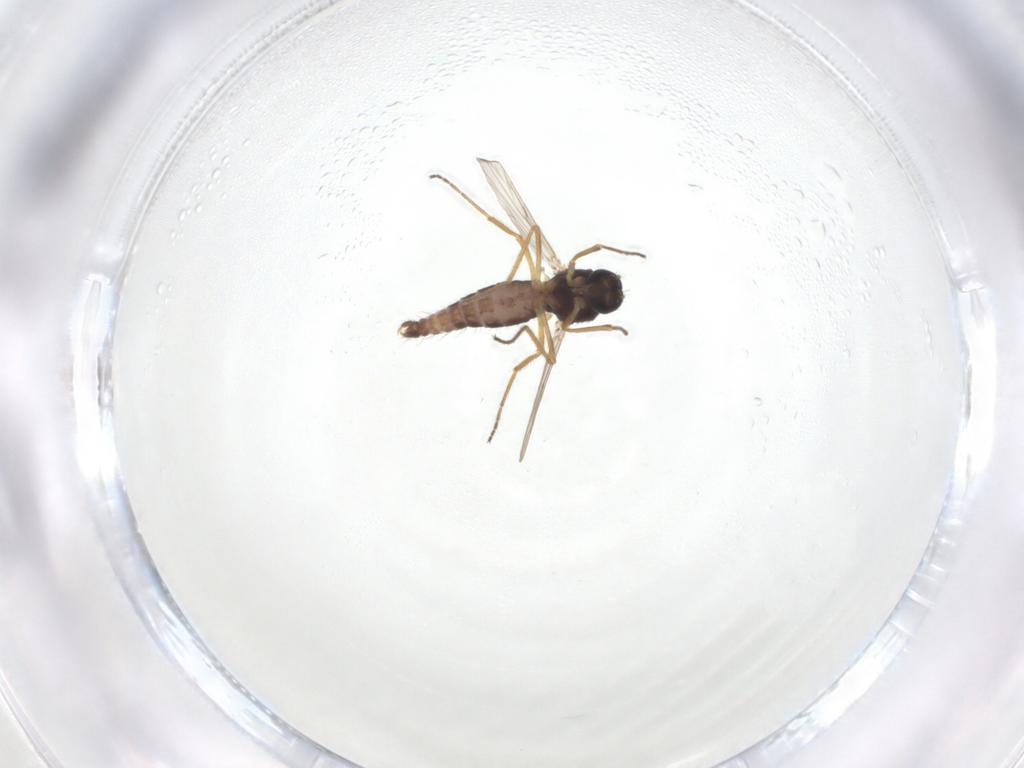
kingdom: Animalia
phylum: Arthropoda
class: Insecta
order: Diptera
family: Ceratopogonidae
